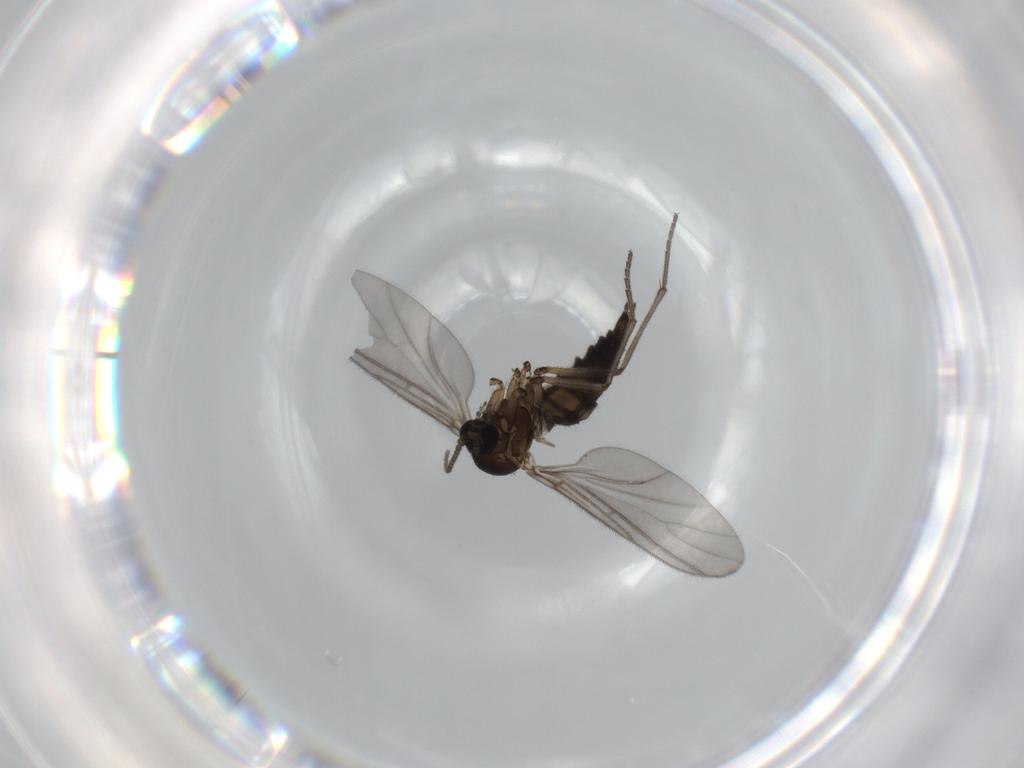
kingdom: Animalia
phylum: Arthropoda
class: Insecta
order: Diptera
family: Sciaridae
